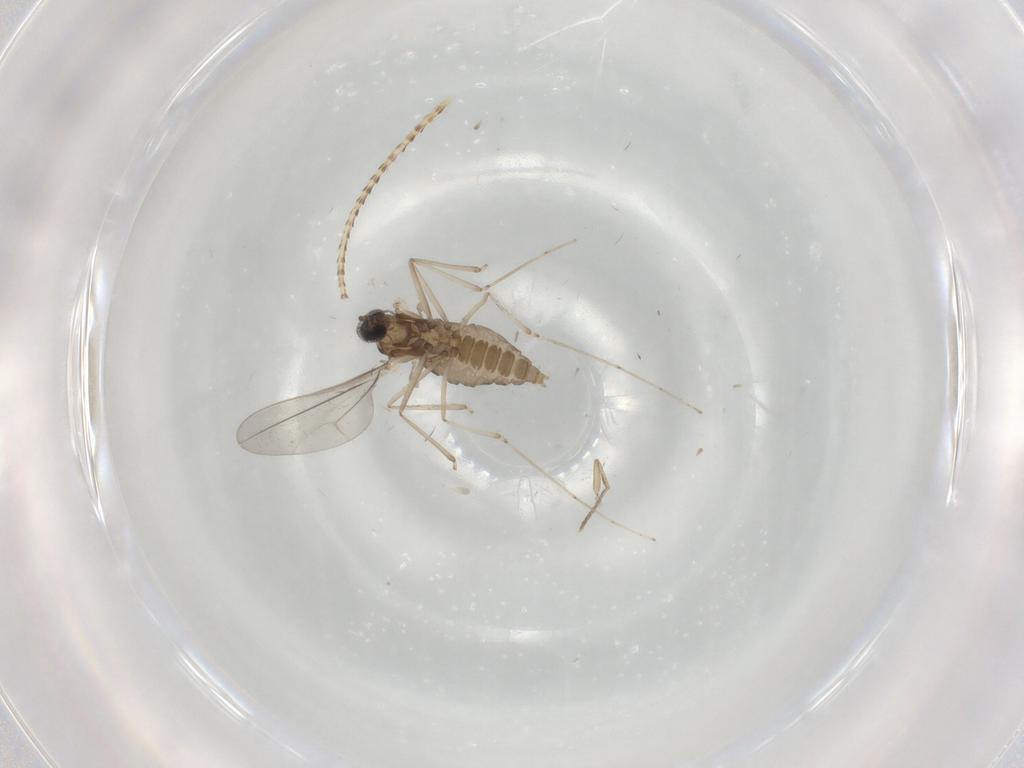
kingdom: Animalia
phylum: Arthropoda
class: Insecta
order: Diptera
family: Cecidomyiidae
